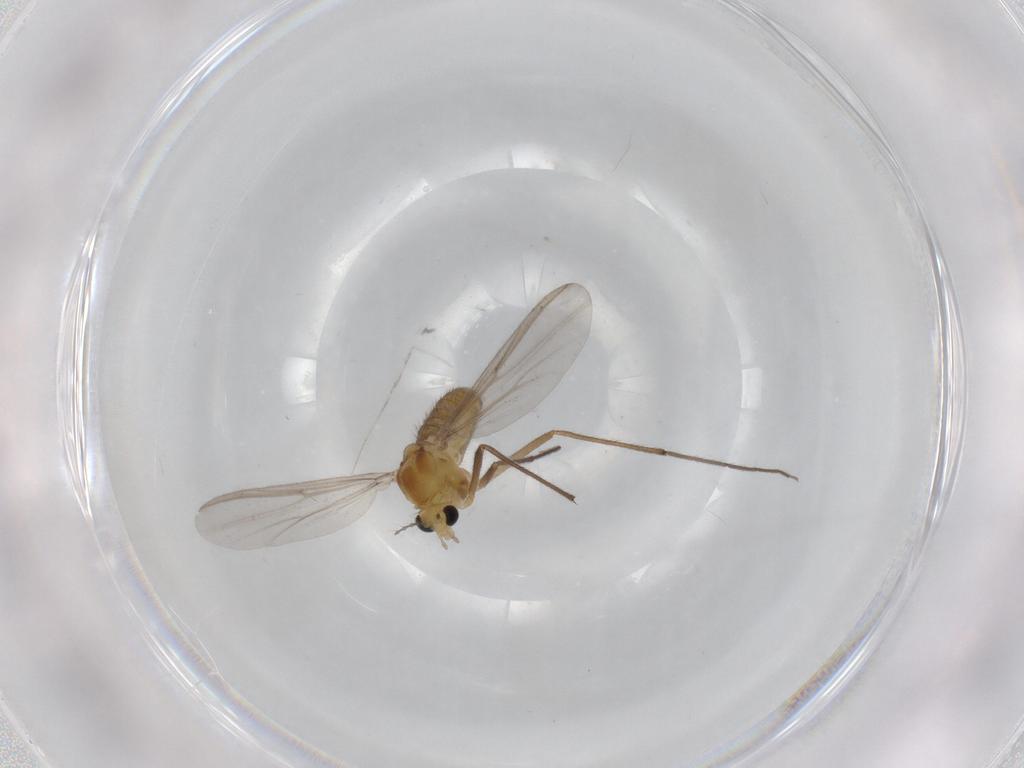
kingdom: Animalia
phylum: Arthropoda
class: Insecta
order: Diptera
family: Chironomidae
